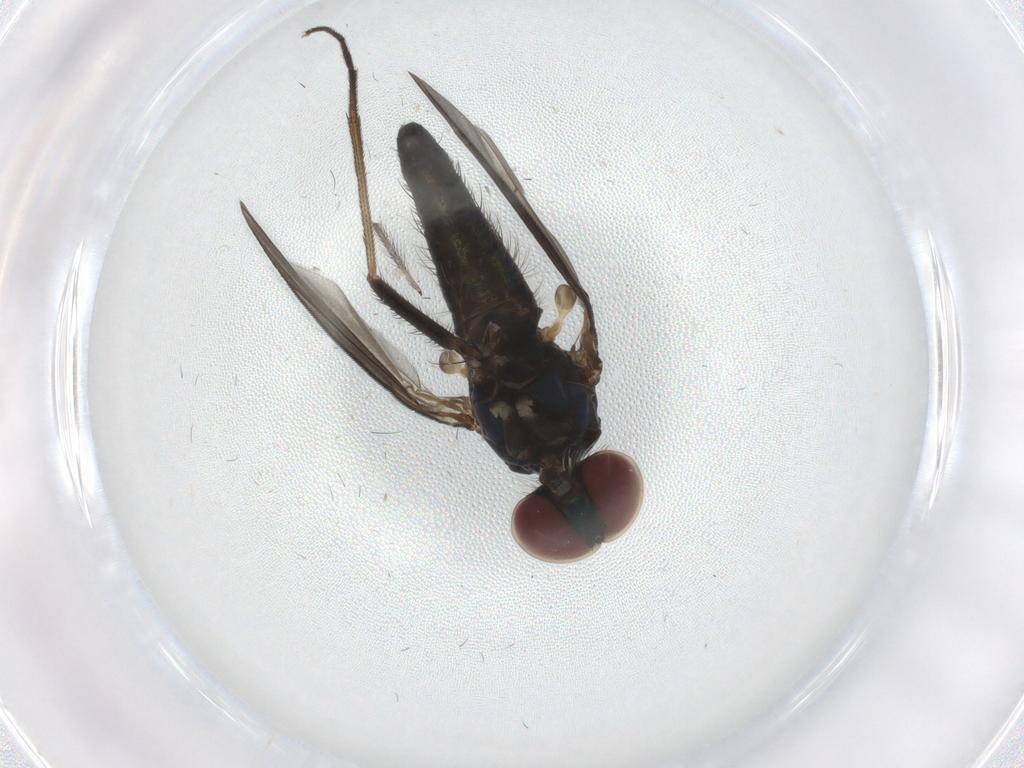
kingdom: Animalia
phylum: Arthropoda
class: Insecta
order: Diptera
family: Dolichopodidae
